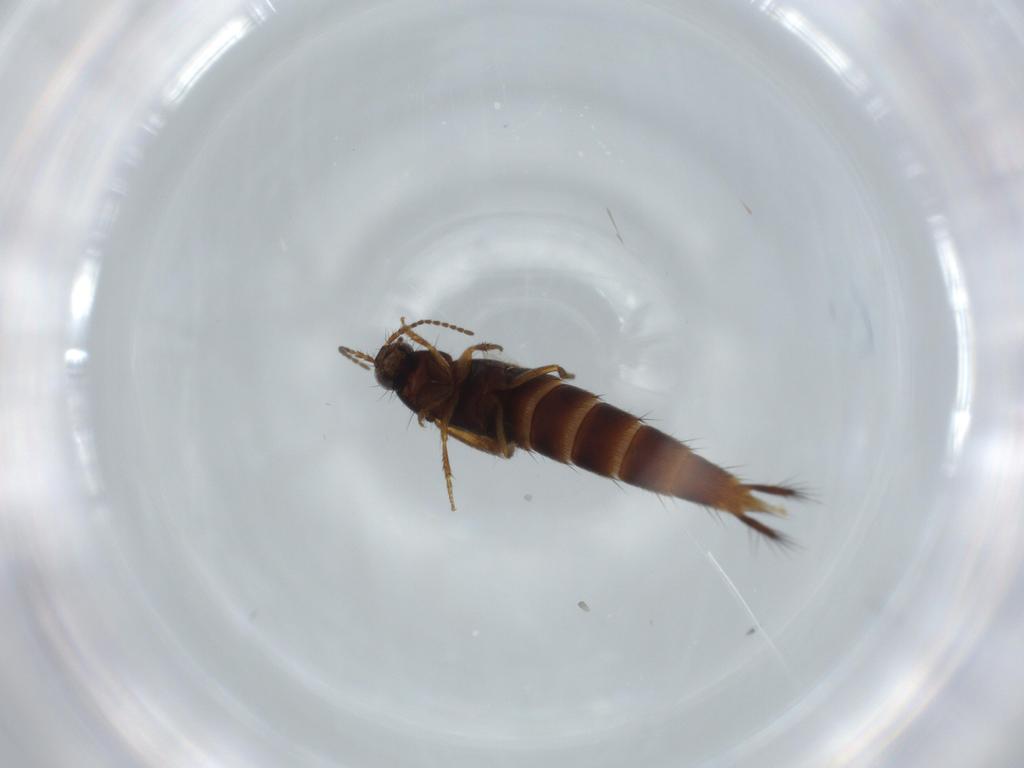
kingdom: Animalia
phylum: Arthropoda
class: Insecta
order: Coleoptera
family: Staphylinidae
